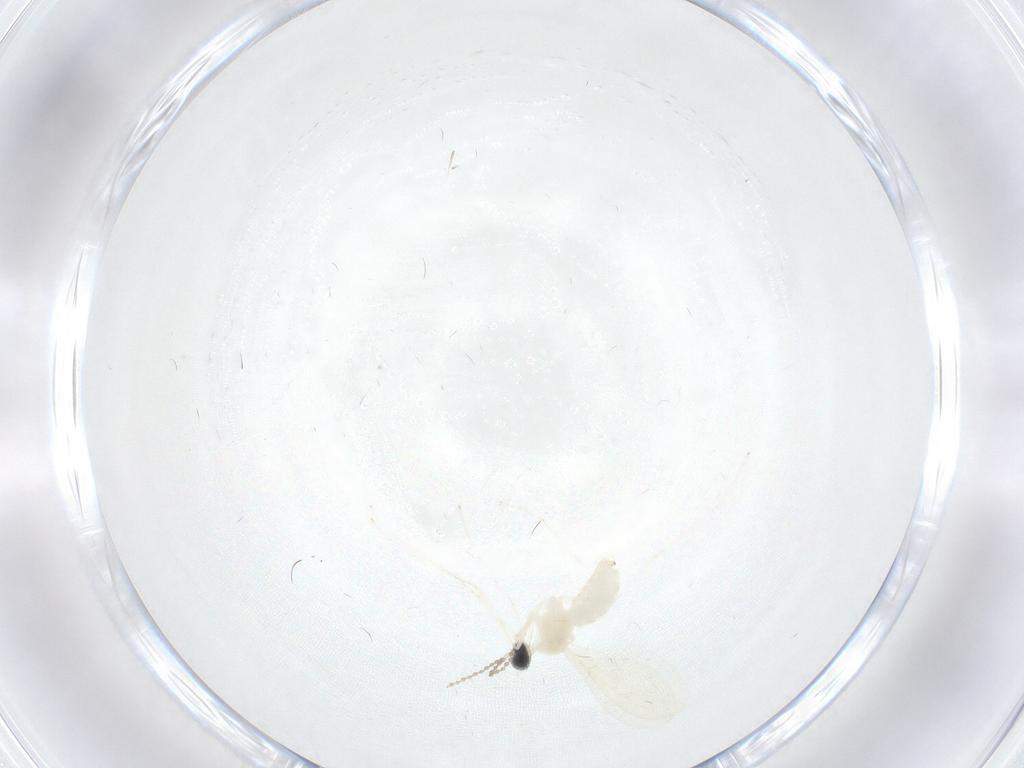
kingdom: Animalia
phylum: Arthropoda
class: Insecta
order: Diptera
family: Cecidomyiidae
